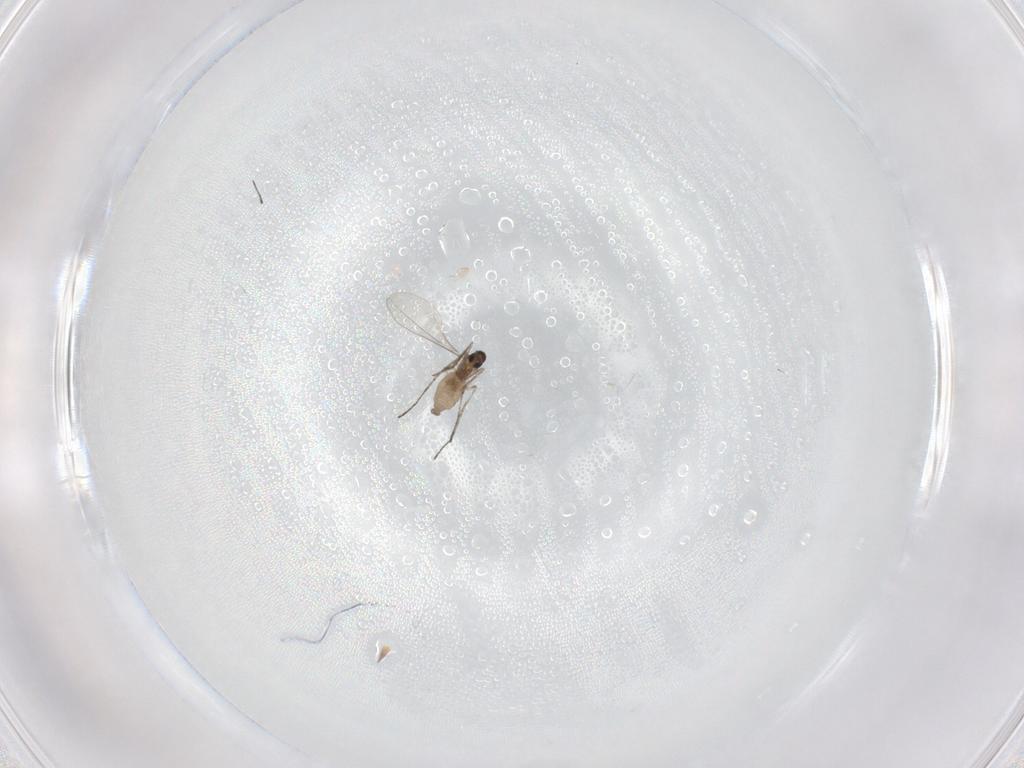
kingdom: Animalia
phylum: Arthropoda
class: Insecta
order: Diptera
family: Cecidomyiidae
